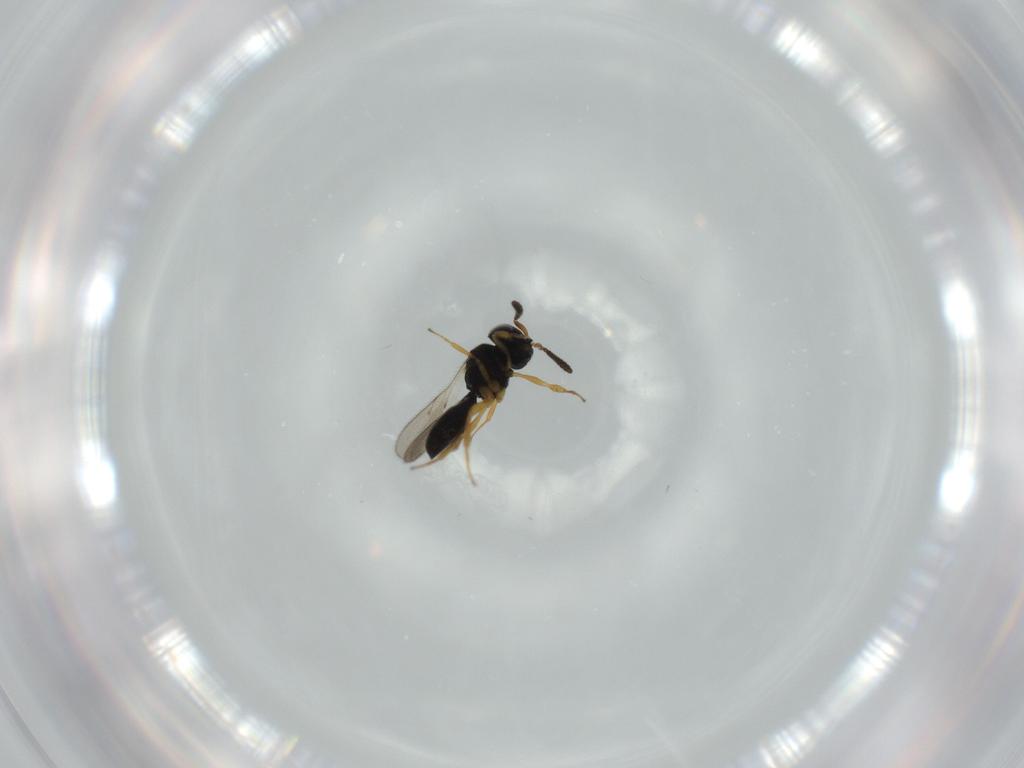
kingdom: Animalia
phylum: Arthropoda
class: Insecta
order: Hymenoptera
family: Scelionidae
